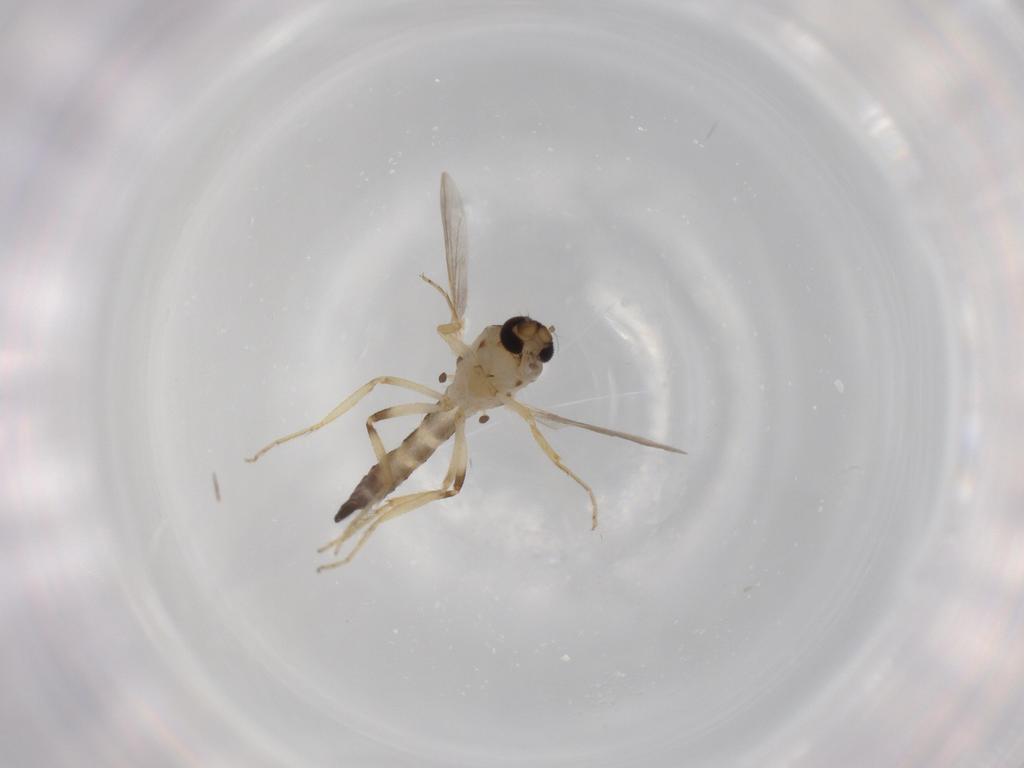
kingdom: Animalia
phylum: Arthropoda
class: Insecta
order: Diptera
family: Ceratopogonidae
